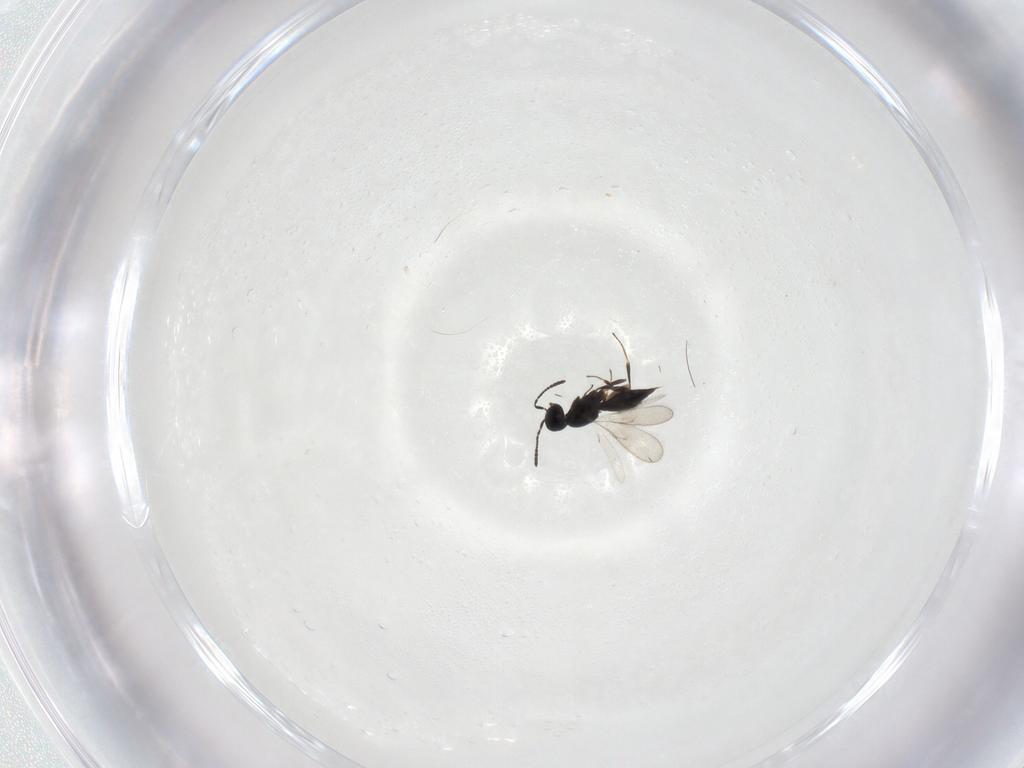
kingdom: Animalia
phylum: Arthropoda
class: Insecta
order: Hymenoptera
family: Scelionidae
